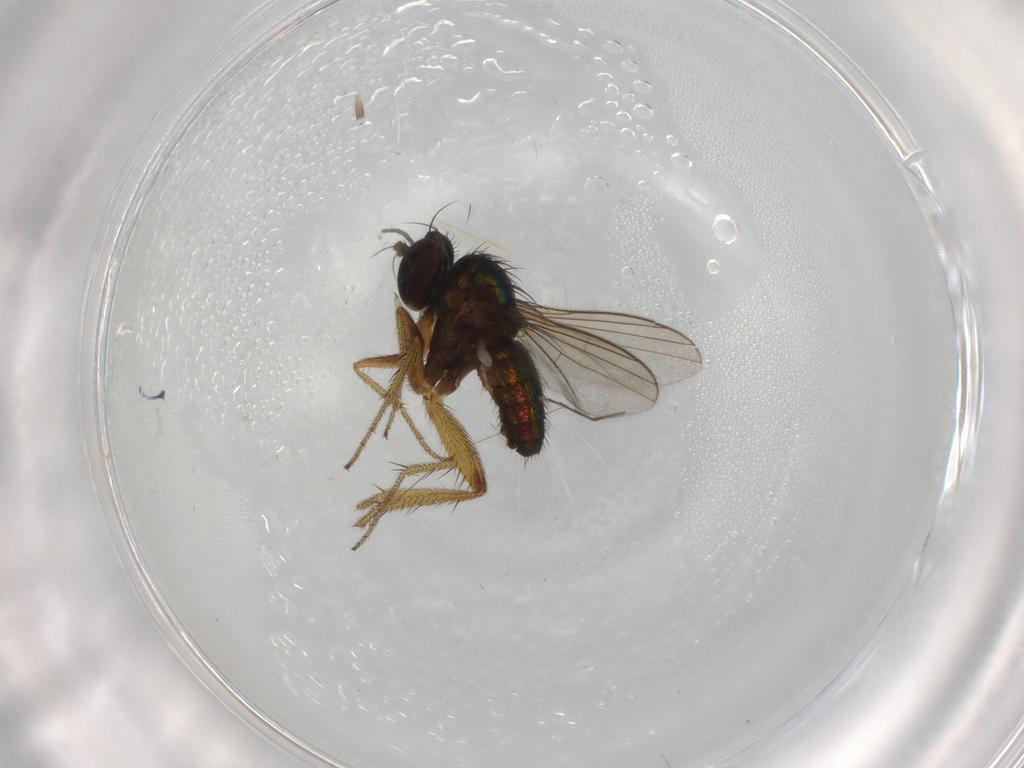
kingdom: Animalia
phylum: Arthropoda
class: Insecta
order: Diptera
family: Dolichopodidae
